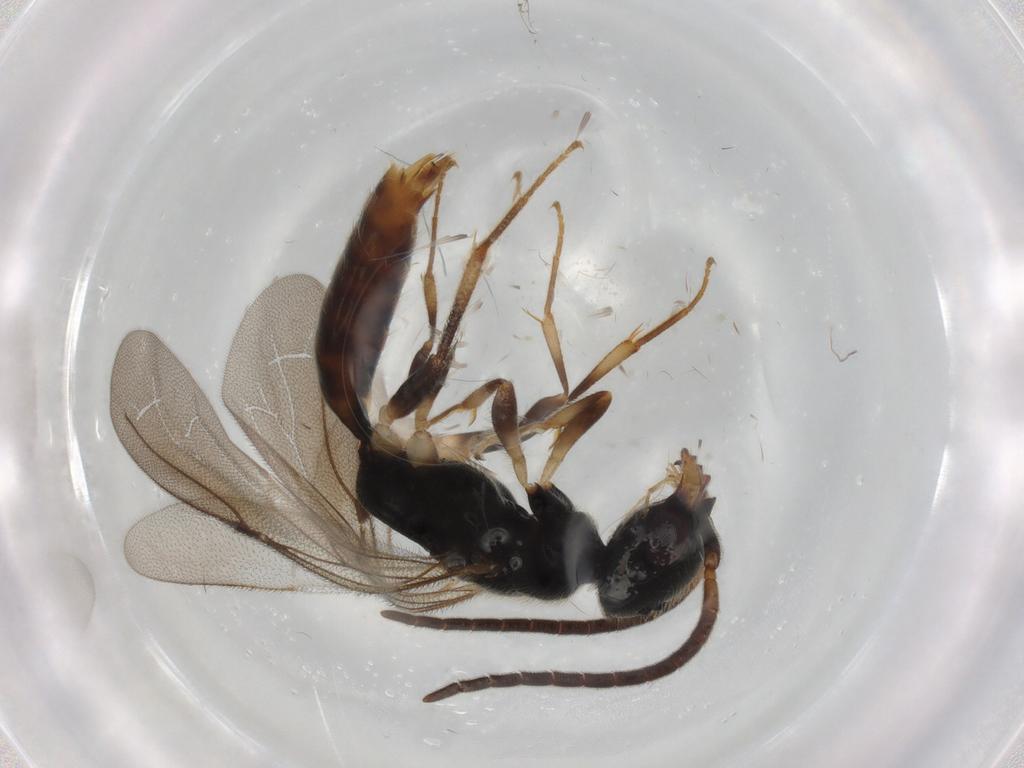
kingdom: Animalia
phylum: Arthropoda
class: Insecta
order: Hymenoptera
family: Bethylidae
